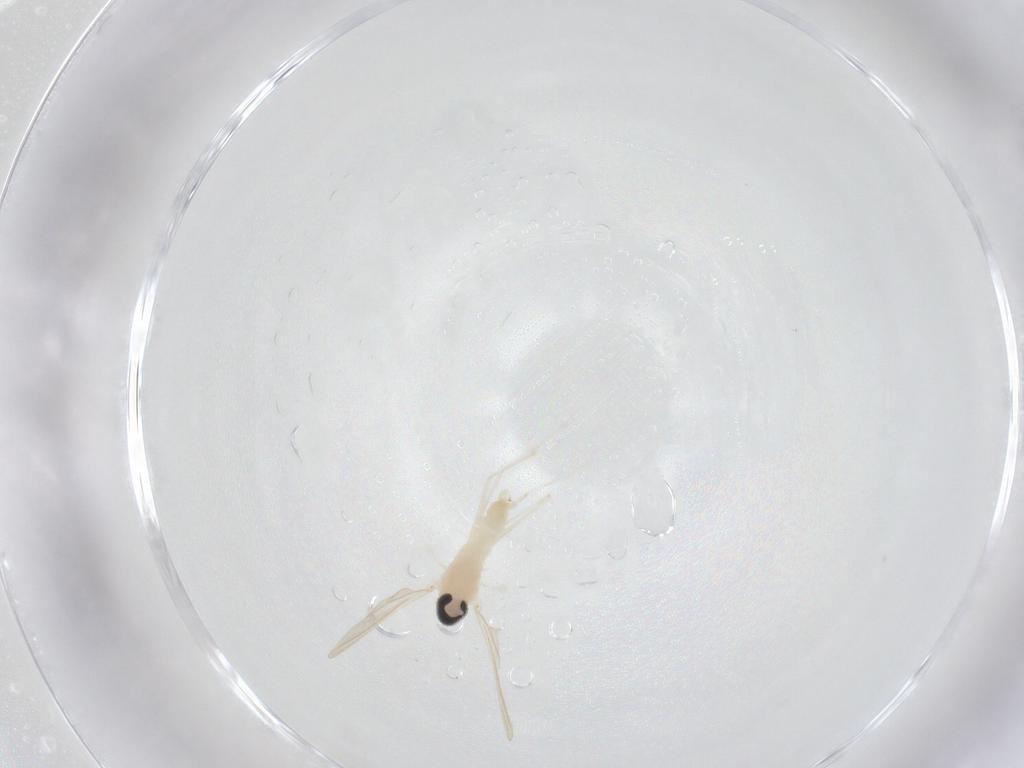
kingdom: Animalia
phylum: Arthropoda
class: Insecta
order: Diptera
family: Cecidomyiidae
